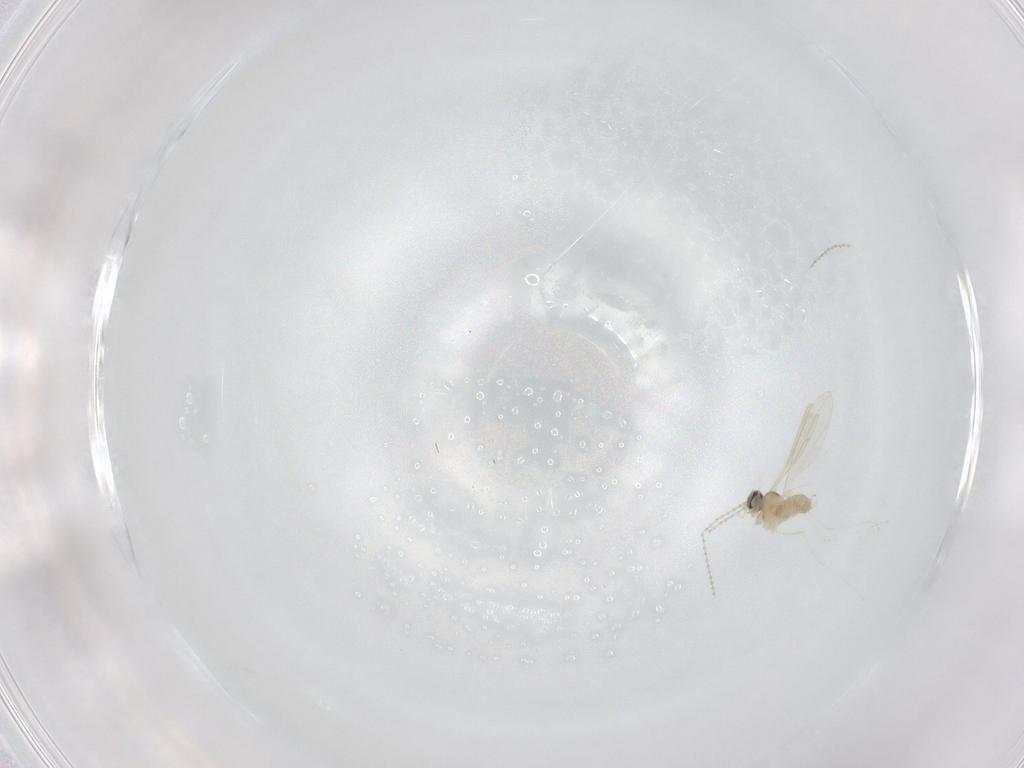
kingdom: Animalia
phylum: Arthropoda
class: Insecta
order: Diptera
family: Cecidomyiidae
